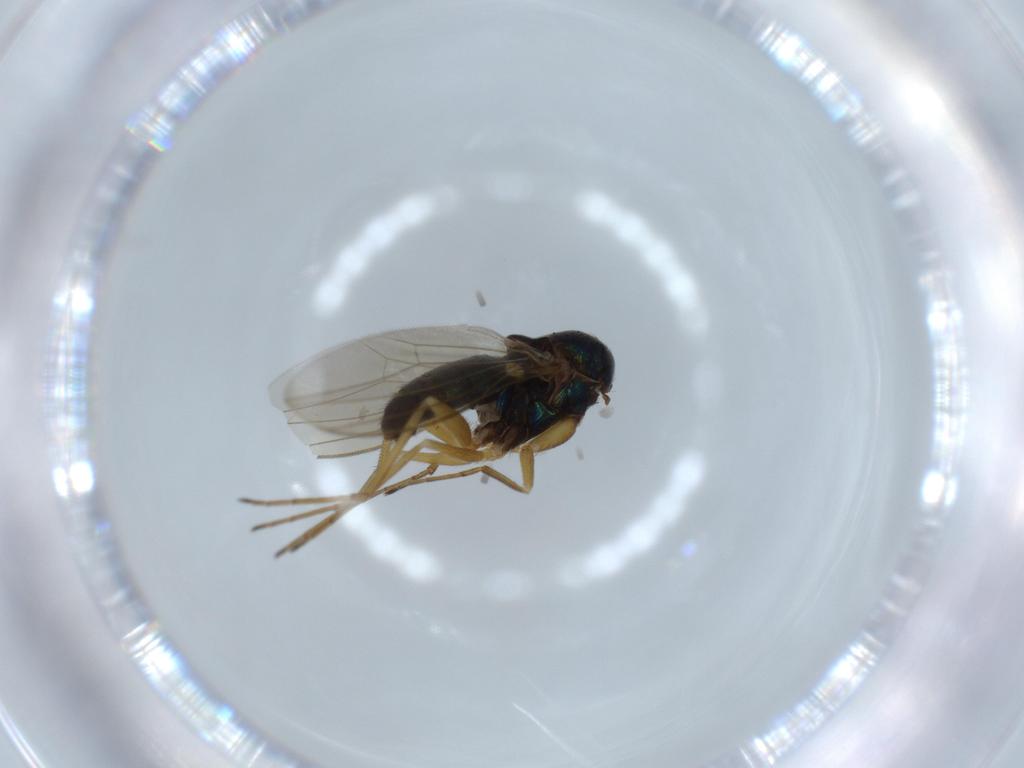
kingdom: Animalia
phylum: Arthropoda
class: Insecta
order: Diptera
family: Dolichopodidae
